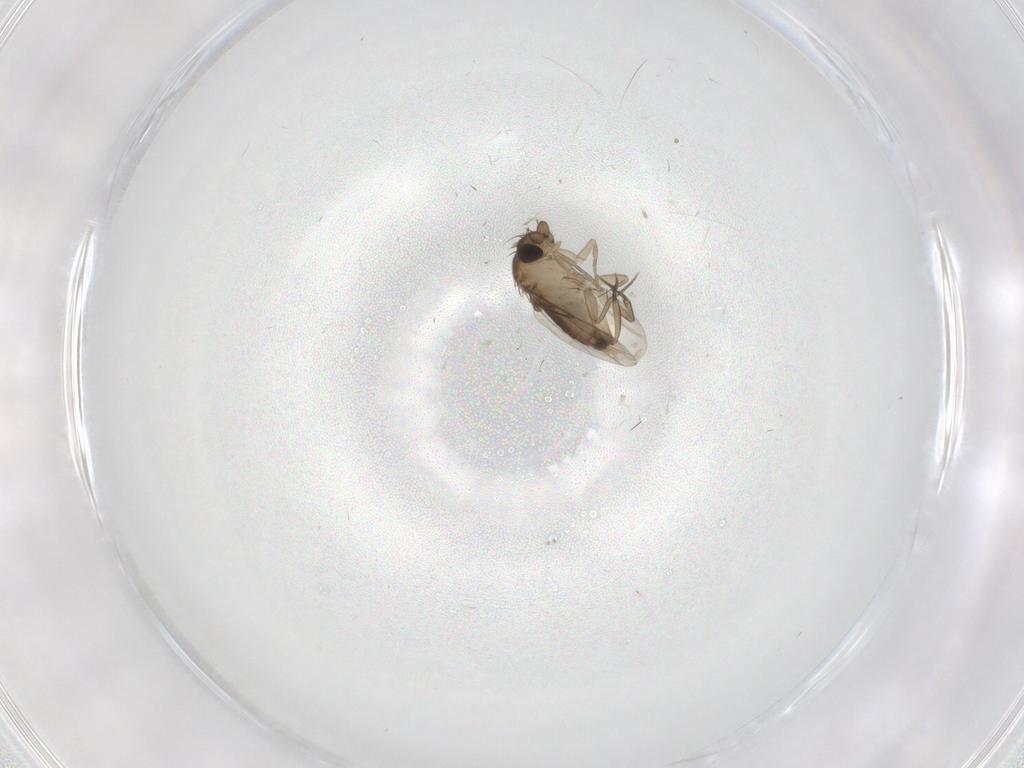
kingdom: Animalia
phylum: Arthropoda
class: Insecta
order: Diptera
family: Phoridae
